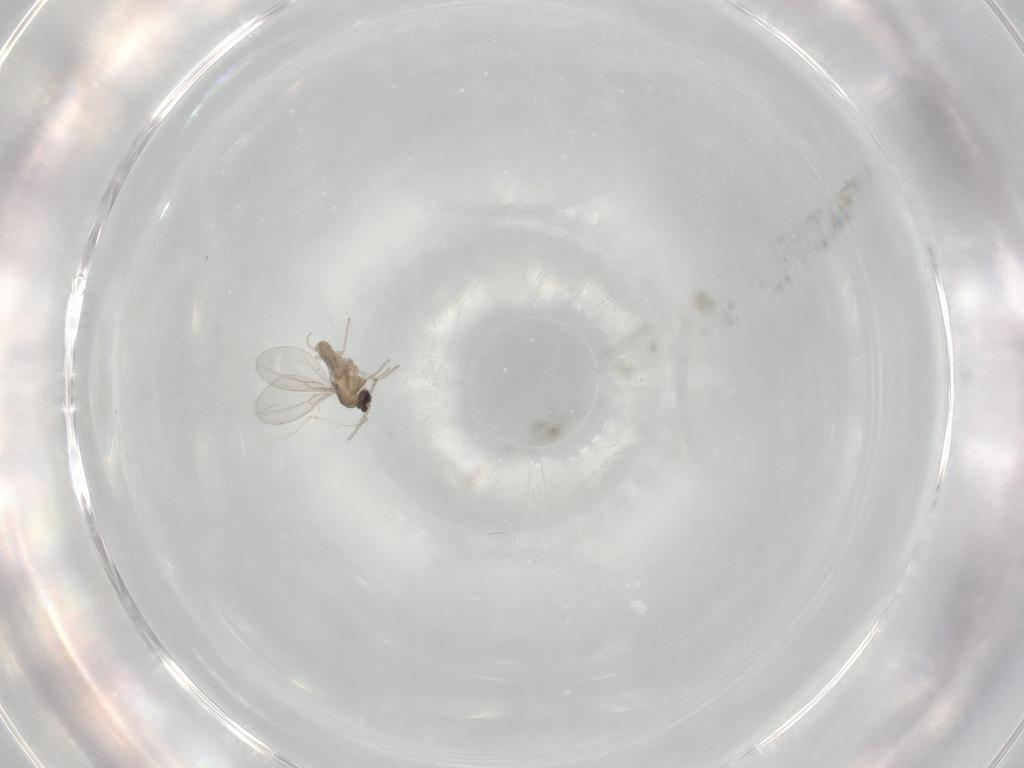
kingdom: Animalia
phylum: Arthropoda
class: Insecta
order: Diptera
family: Cecidomyiidae
